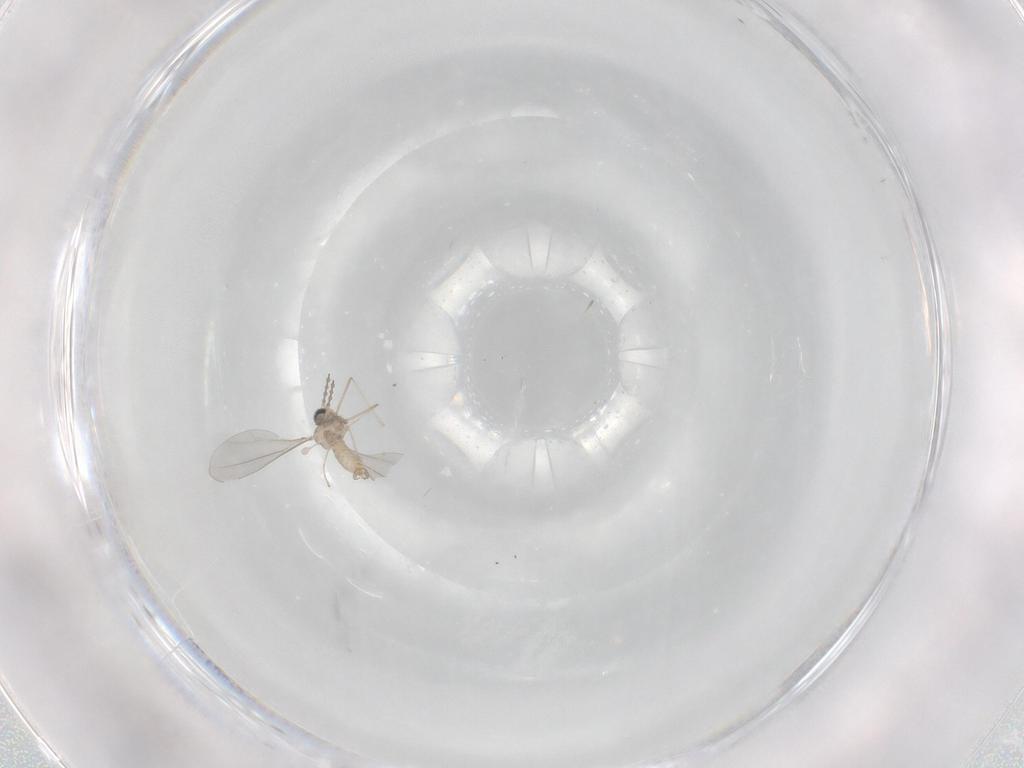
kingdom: Animalia
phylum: Arthropoda
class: Insecta
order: Diptera
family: Cecidomyiidae
